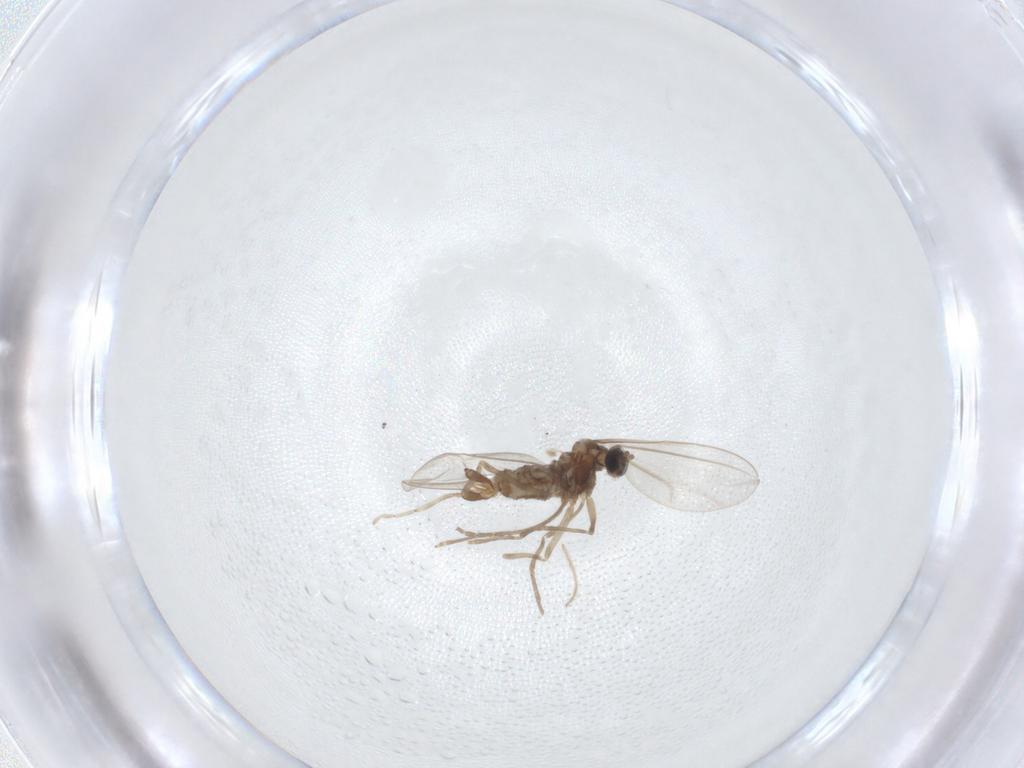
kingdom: Animalia
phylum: Arthropoda
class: Insecta
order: Diptera
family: Cecidomyiidae
